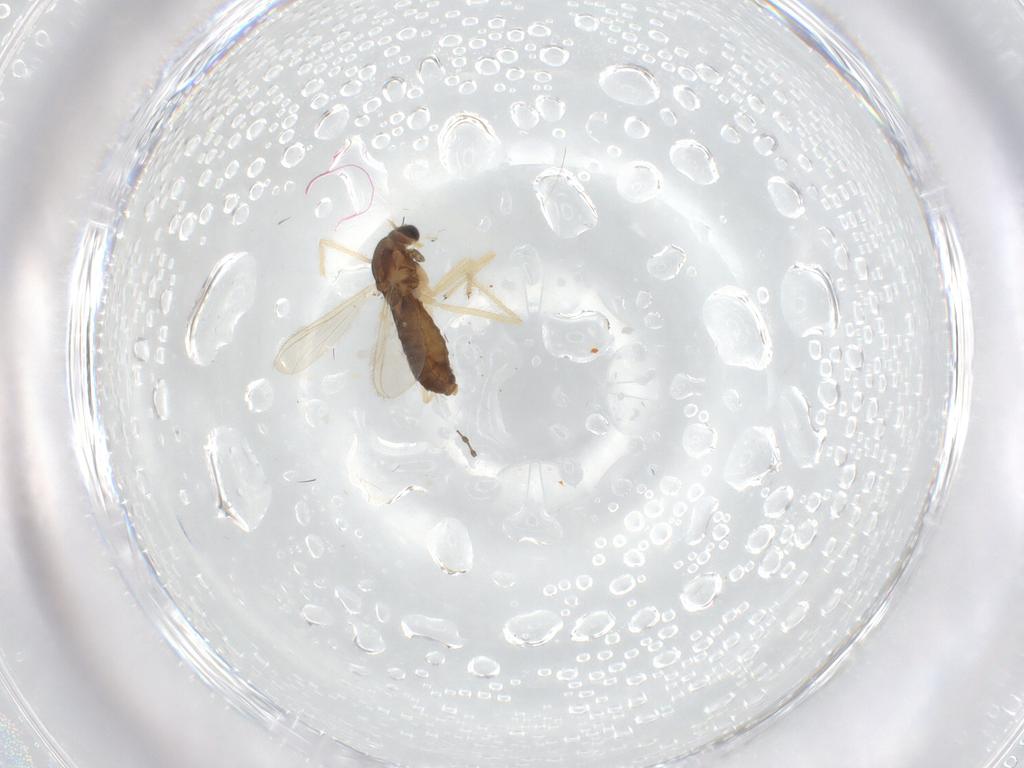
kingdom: Animalia
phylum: Arthropoda
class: Insecta
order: Diptera
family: Chironomidae
